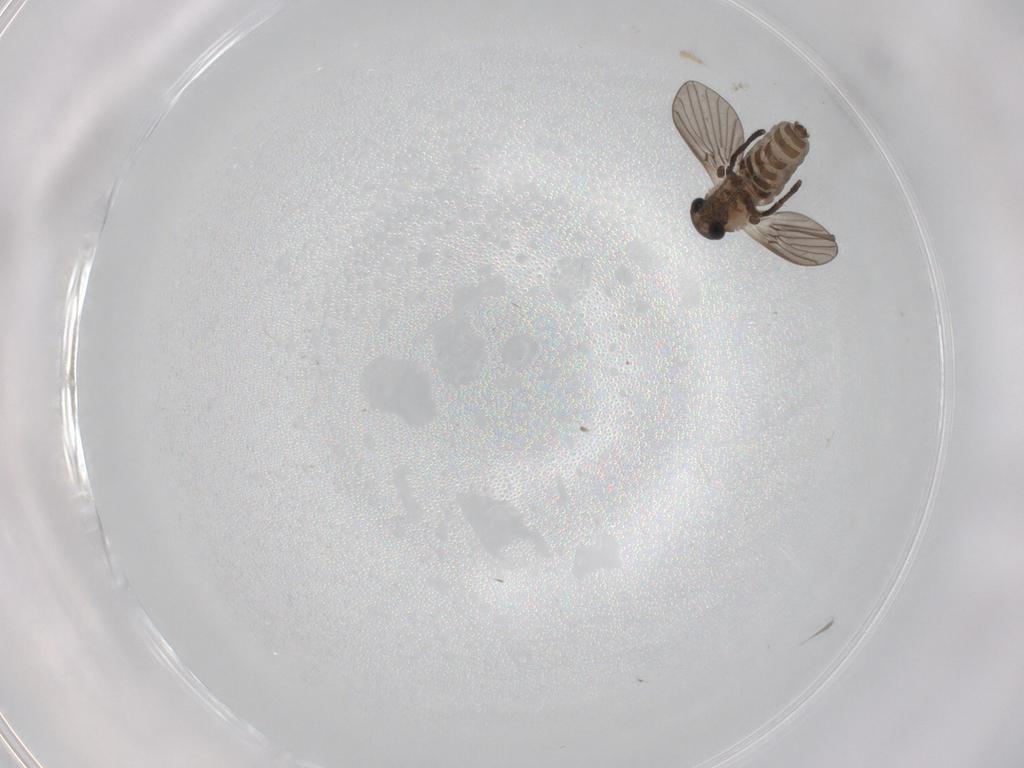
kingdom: Animalia
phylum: Arthropoda
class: Insecta
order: Diptera
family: Psychodidae
